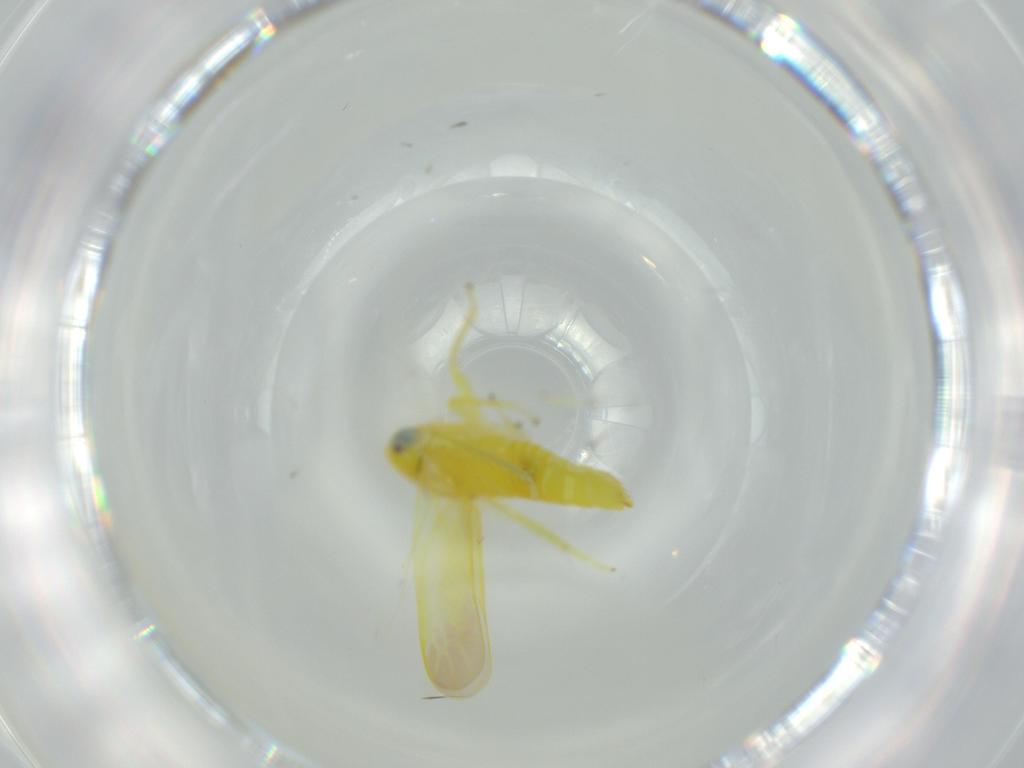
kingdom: Animalia
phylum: Arthropoda
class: Insecta
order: Hemiptera
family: Cicadellidae
